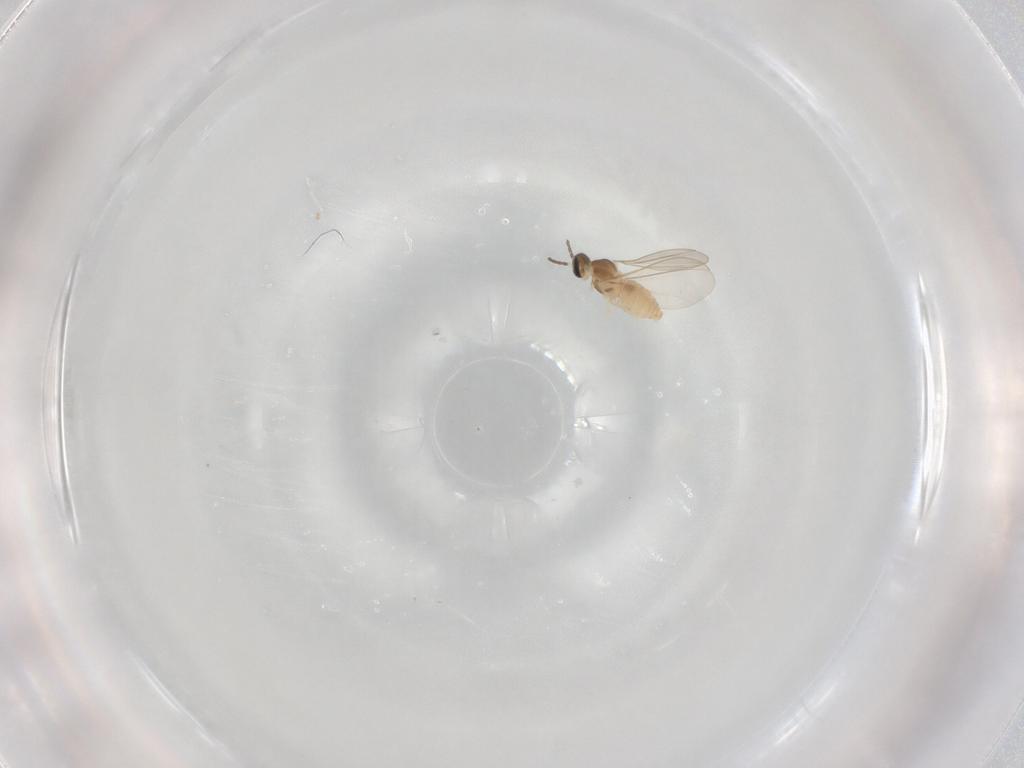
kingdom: Animalia
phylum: Arthropoda
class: Insecta
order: Diptera
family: Cecidomyiidae
